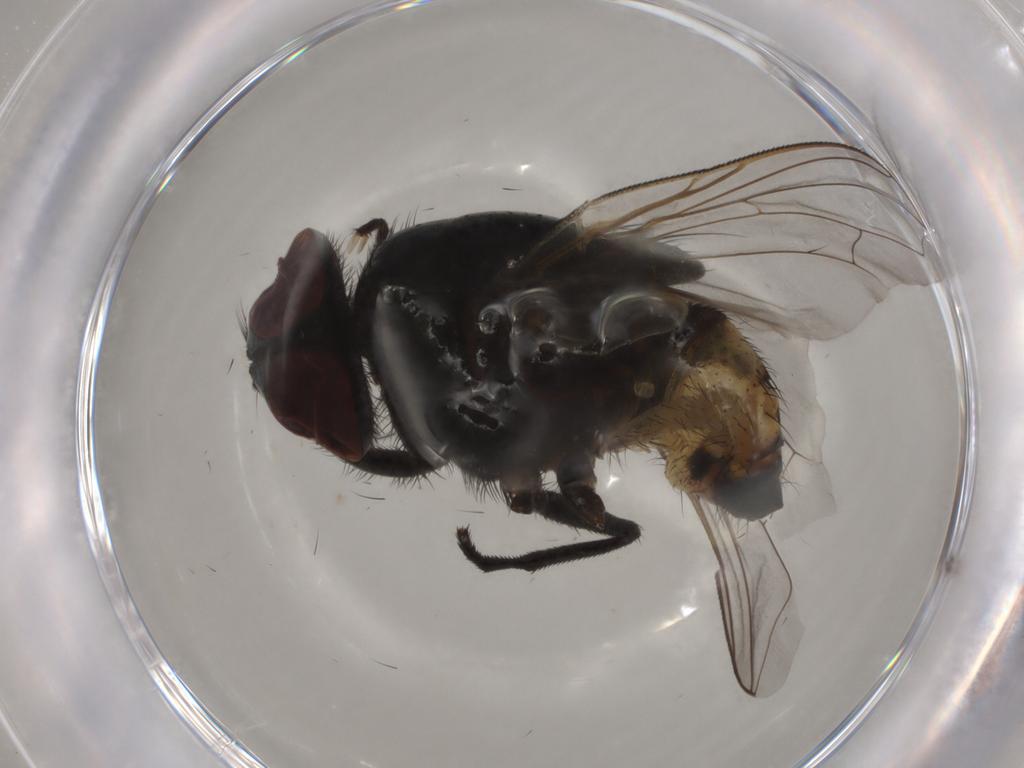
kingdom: Animalia
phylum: Arthropoda
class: Insecta
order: Diptera
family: Muscidae
